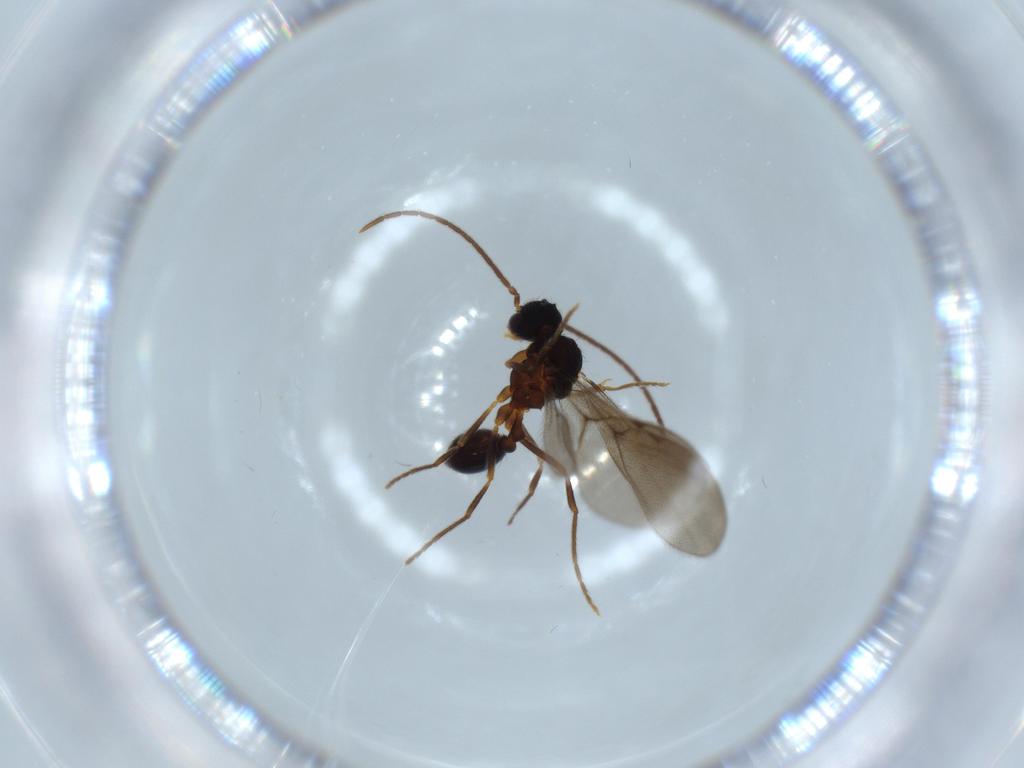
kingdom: Animalia
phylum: Arthropoda
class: Insecta
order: Hymenoptera
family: Formicidae
